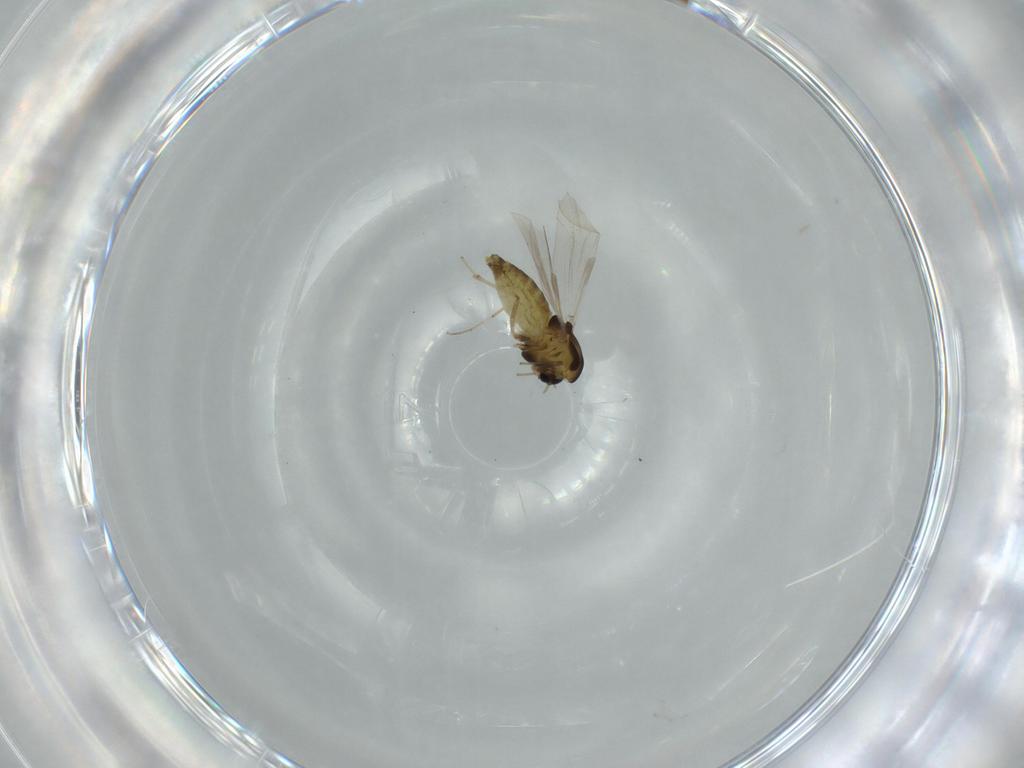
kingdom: Animalia
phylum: Arthropoda
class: Insecta
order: Diptera
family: Chironomidae
